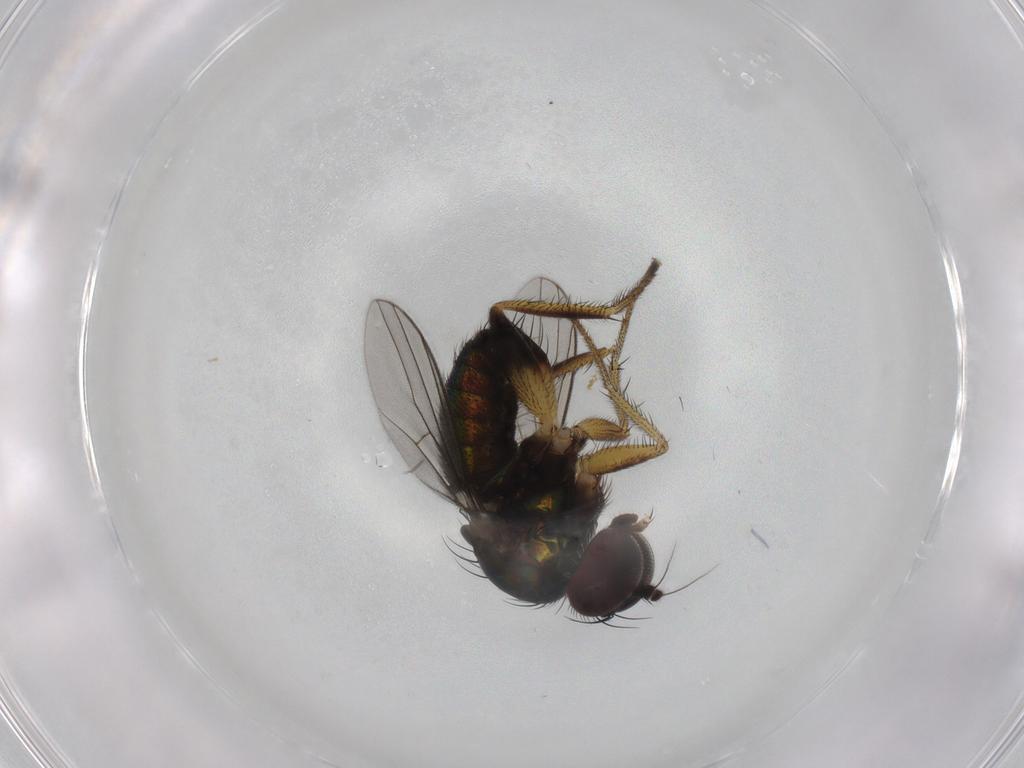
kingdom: Animalia
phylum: Arthropoda
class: Insecta
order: Diptera
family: Dolichopodidae
